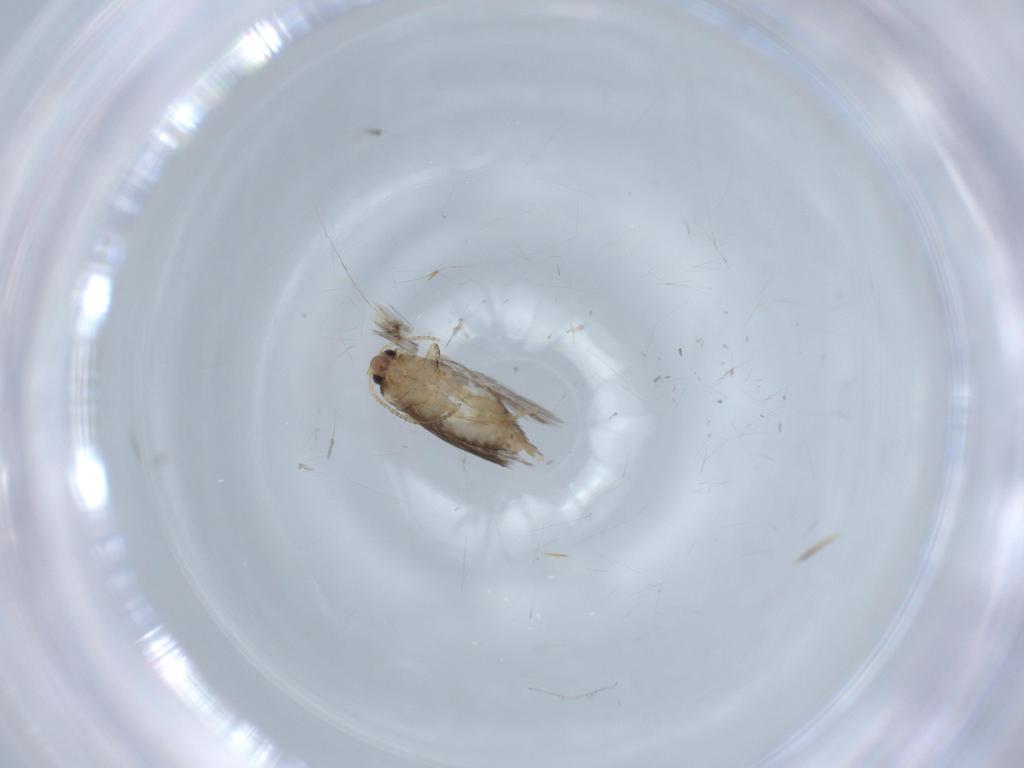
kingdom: Animalia
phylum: Arthropoda
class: Insecta
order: Lepidoptera
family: Nepticulidae
